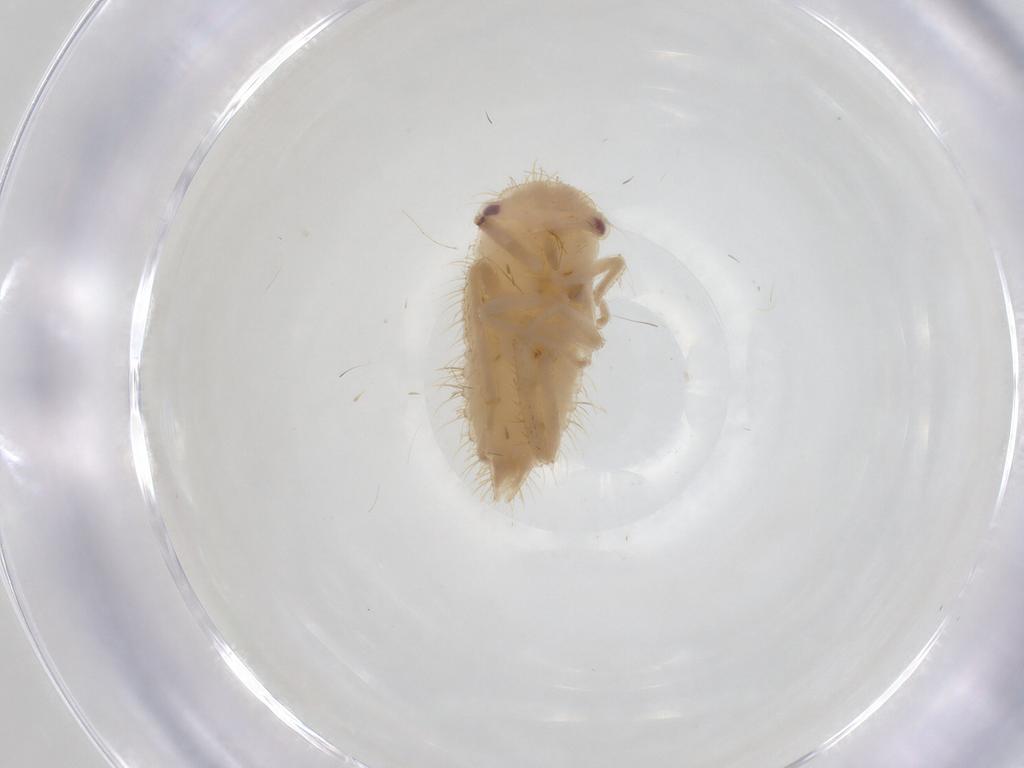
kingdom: Animalia
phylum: Arthropoda
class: Insecta
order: Hemiptera
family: Cicadellidae
